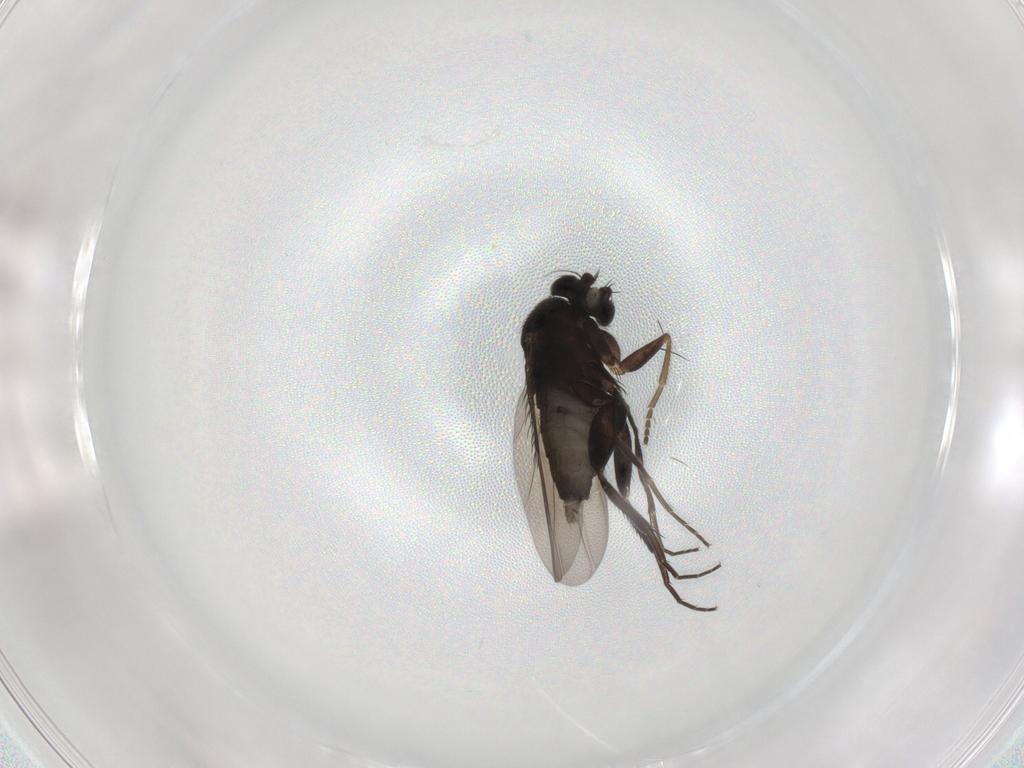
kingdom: Animalia
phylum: Arthropoda
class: Insecta
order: Diptera
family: Phoridae
